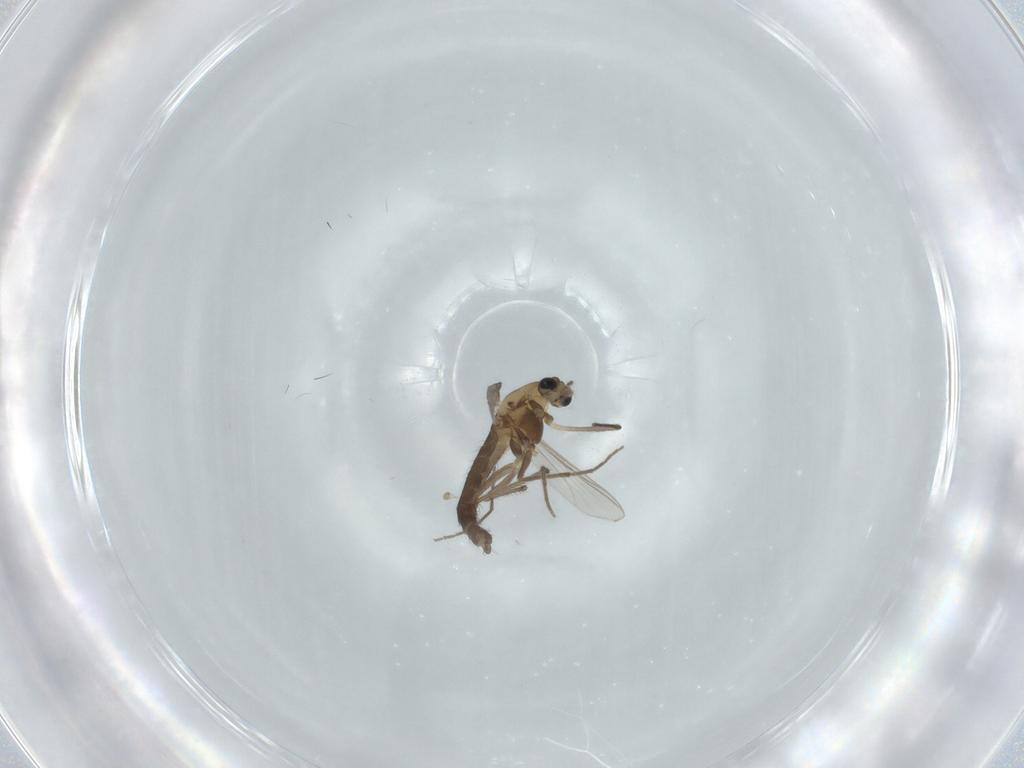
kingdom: Animalia
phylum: Arthropoda
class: Insecta
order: Diptera
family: Chironomidae
